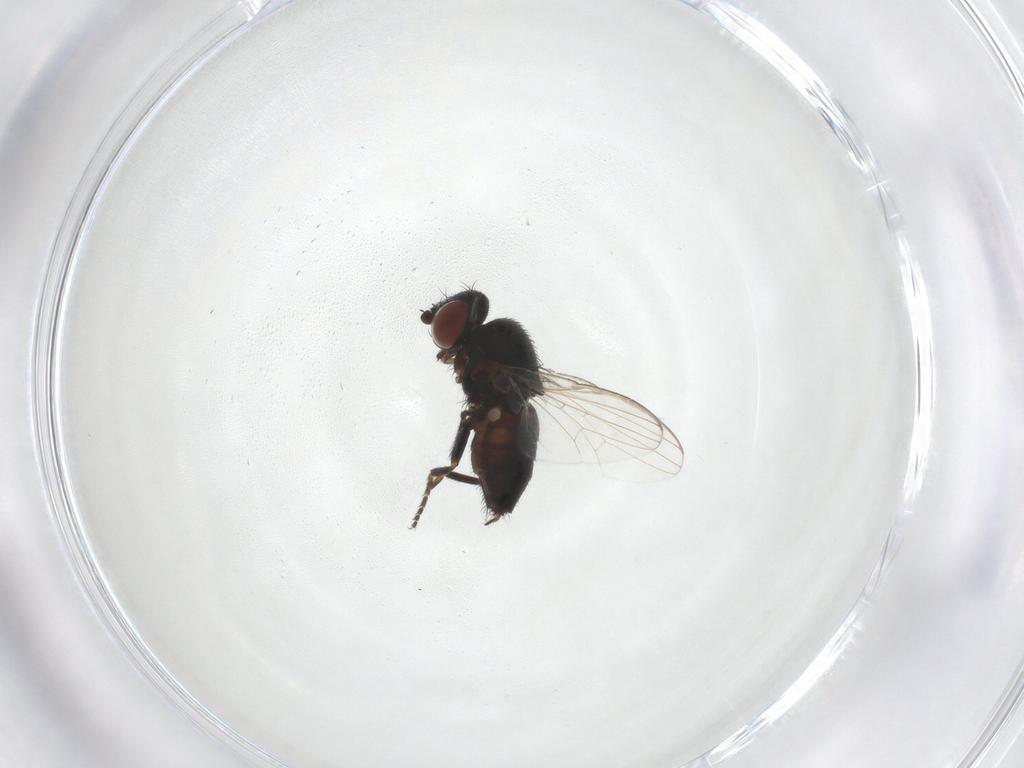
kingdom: Animalia
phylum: Arthropoda
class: Insecta
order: Diptera
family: Chloropidae
